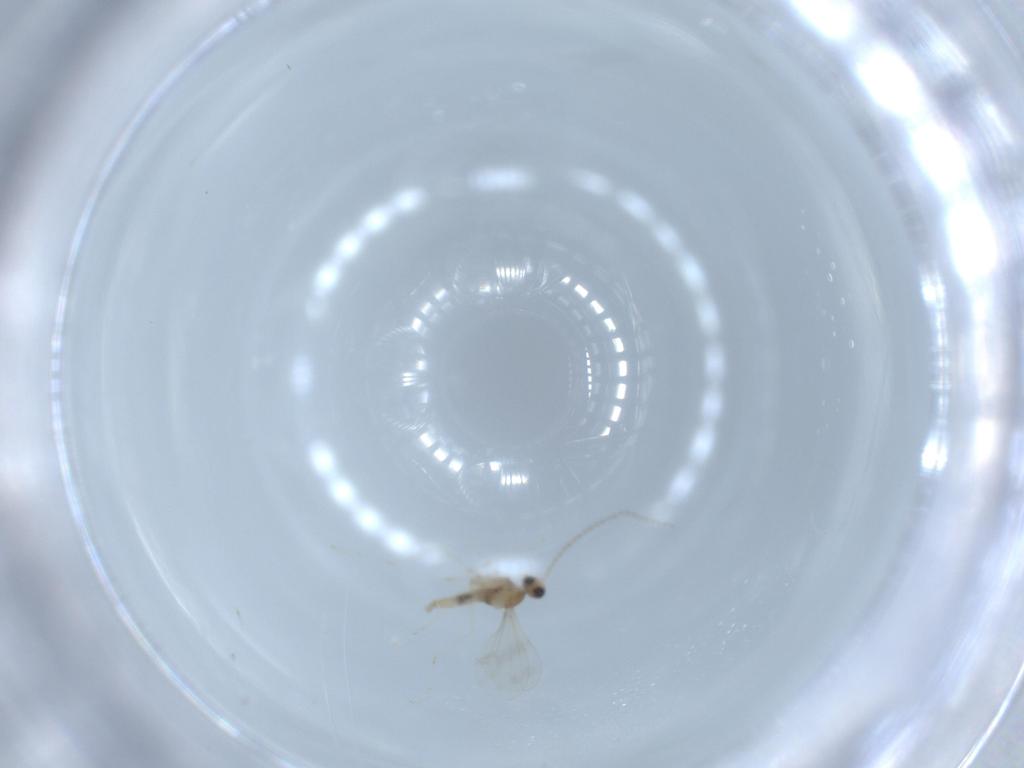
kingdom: Animalia
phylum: Arthropoda
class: Insecta
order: Diptera
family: Cecidomyiidae
